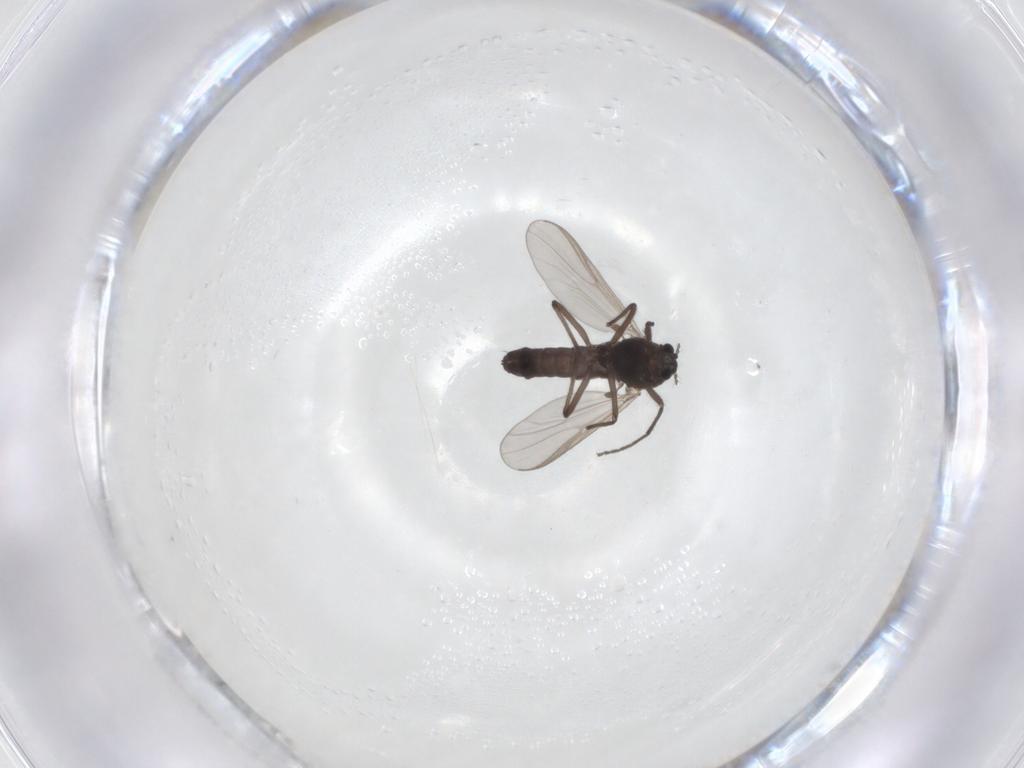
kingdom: Animalia
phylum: Arthropoda
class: Insecta
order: Diptera
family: Chironomidae
